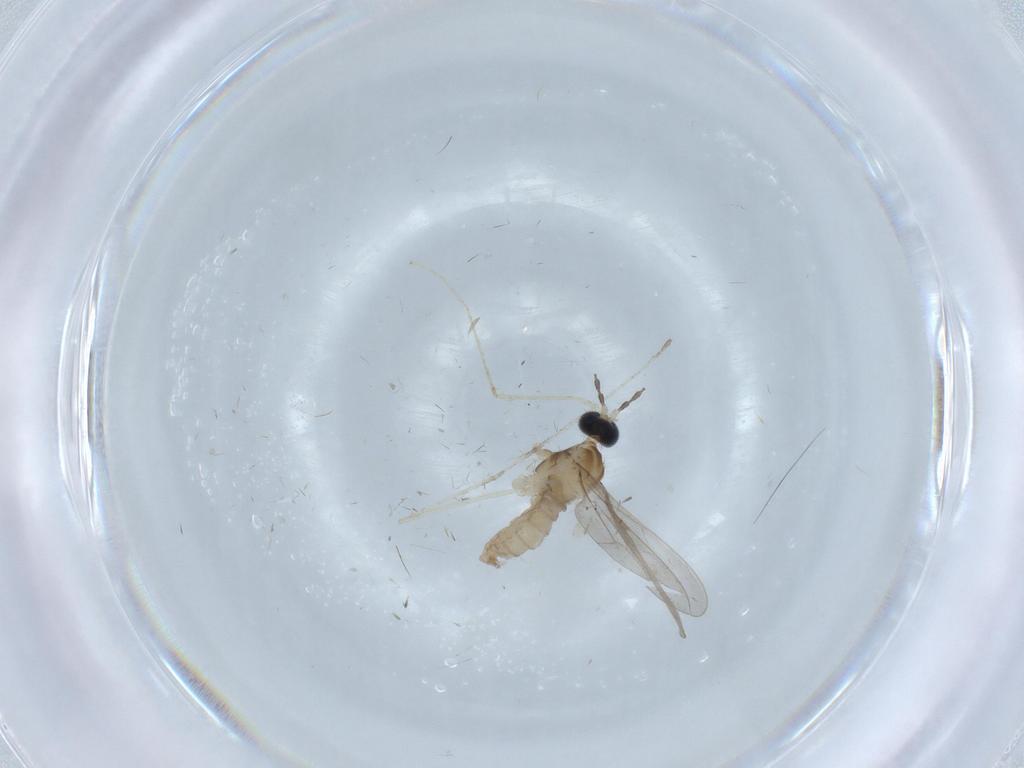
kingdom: Animalia
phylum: Arthropoda
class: Insecta
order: Diptera
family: Cecidomyiidae
